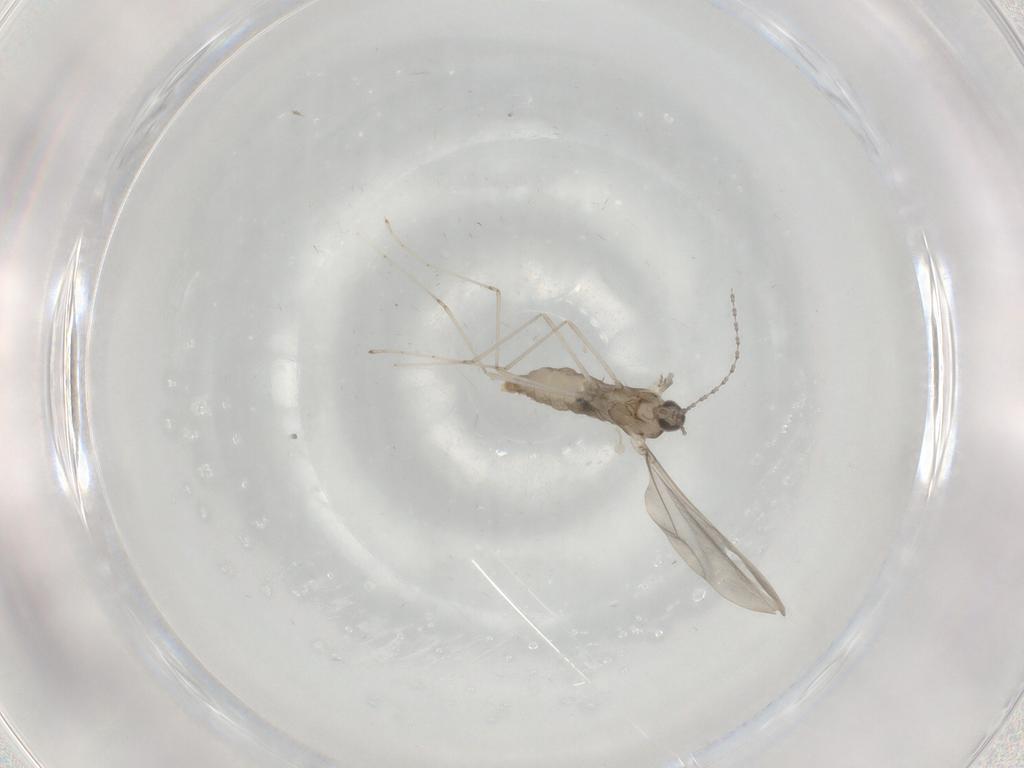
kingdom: Animalia
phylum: Arthropoda
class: Insecta
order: Diptera
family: Cecidomyiidae
